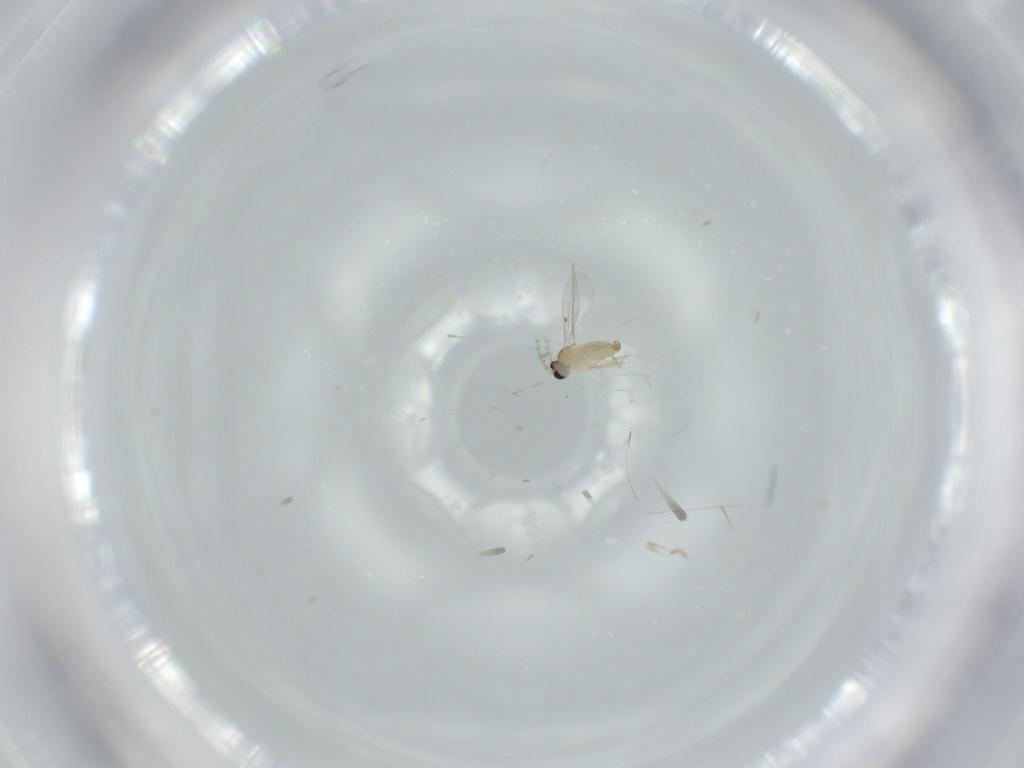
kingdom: Animalia
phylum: Arthropoda
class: Insecta
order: Diptera
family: Cecidomyiidae
